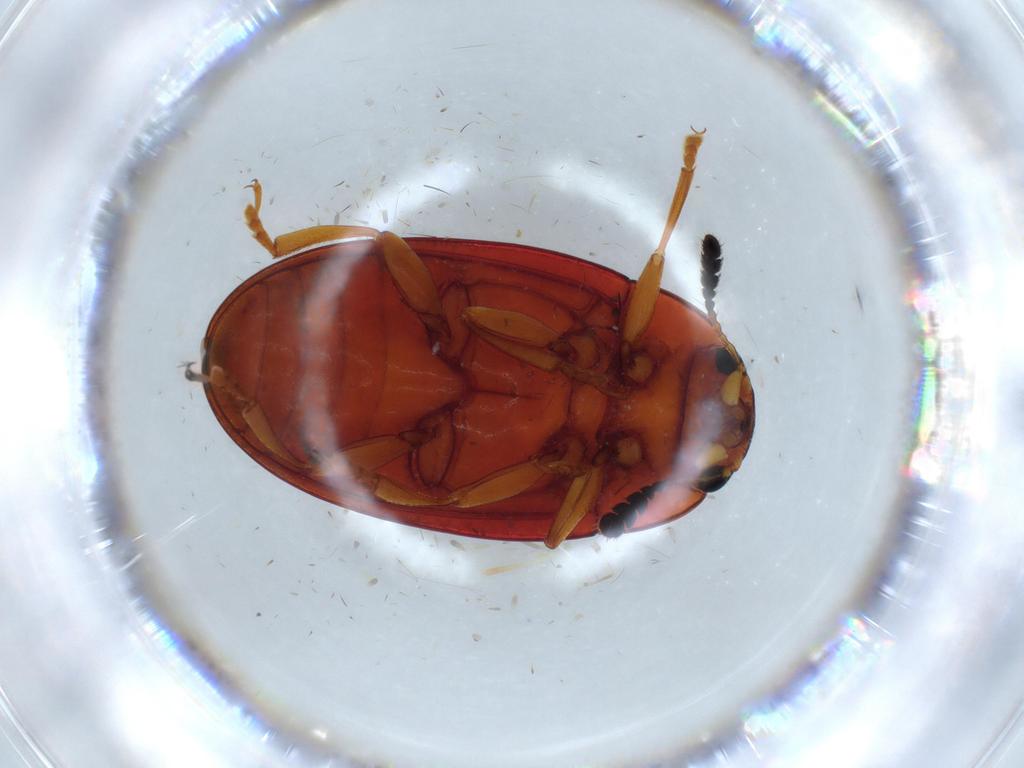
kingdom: Animalia
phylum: Arthropoda
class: Insecta
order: Coleoptera
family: Erotylidae
